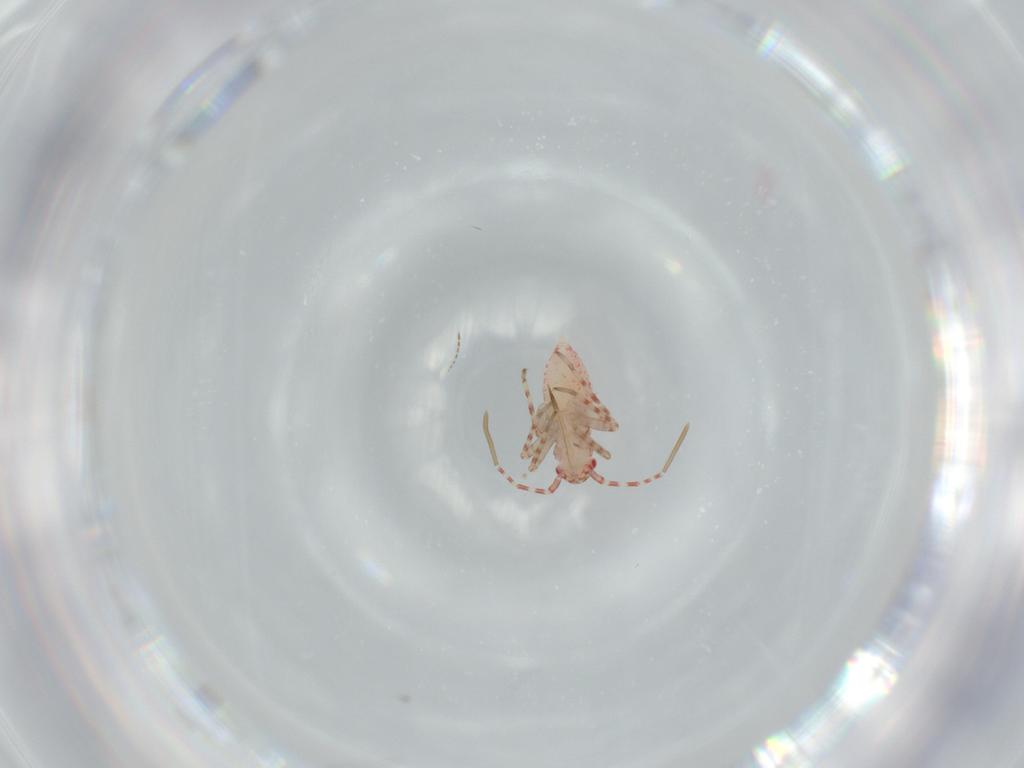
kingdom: Animalia
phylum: Arthropoda
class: Insecta
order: Hemiptera
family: Miridae
